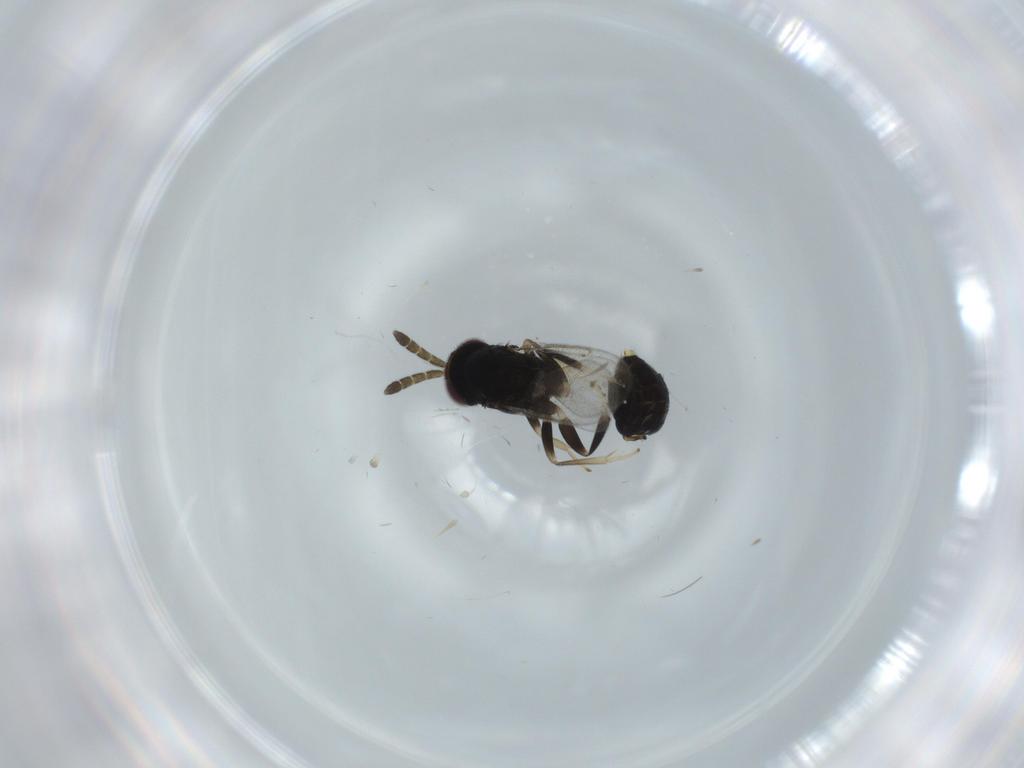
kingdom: Animalia
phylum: Arthropoda
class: Insecta
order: Hymenoptera
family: Aphelinidae
